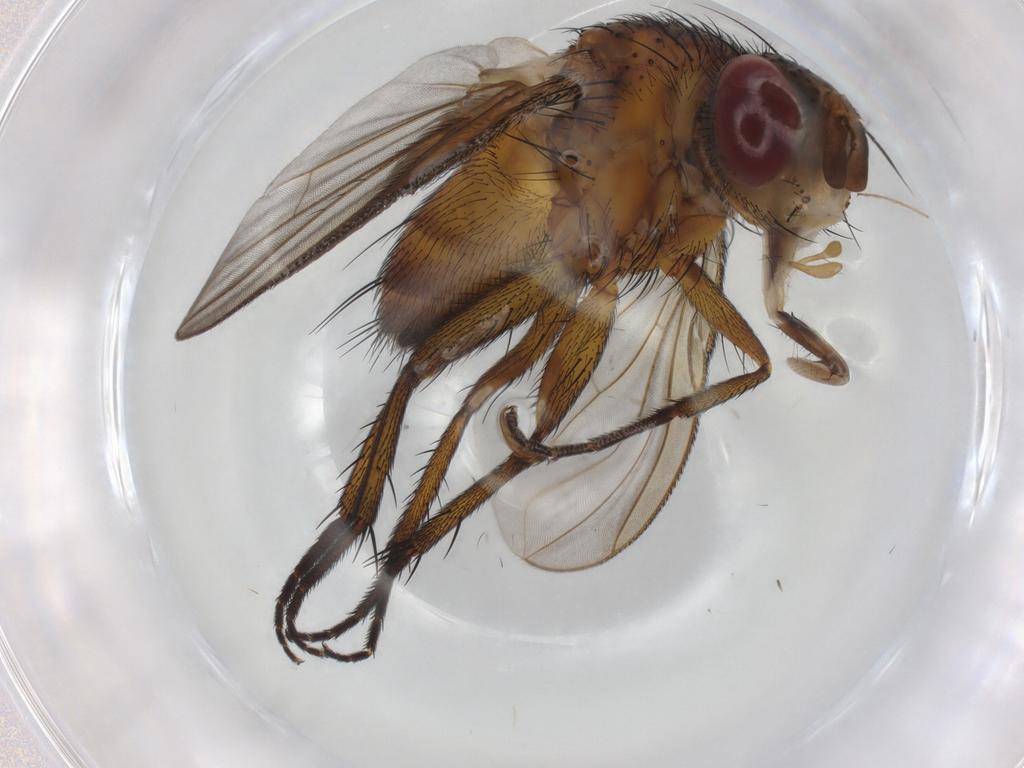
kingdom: Animalia
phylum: Arthropoda
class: Insecta
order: Diptera
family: Tachinidae
